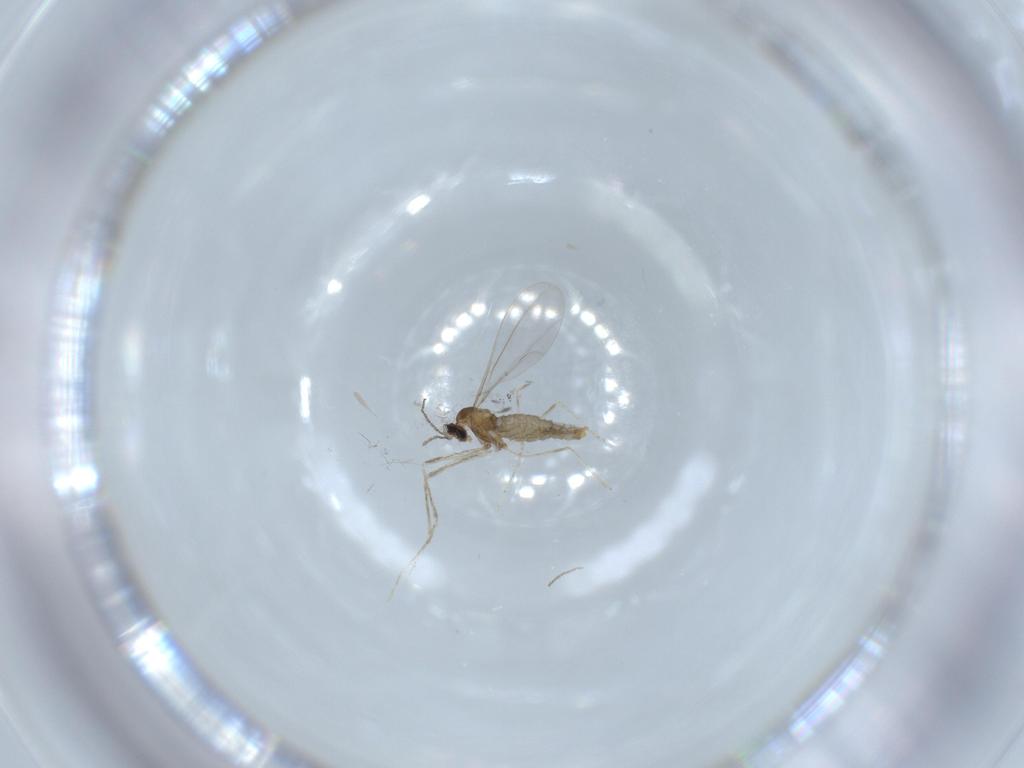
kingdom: Animalia
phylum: Arthropoda
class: Insecta
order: Diptera
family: Cecidomyiidae
